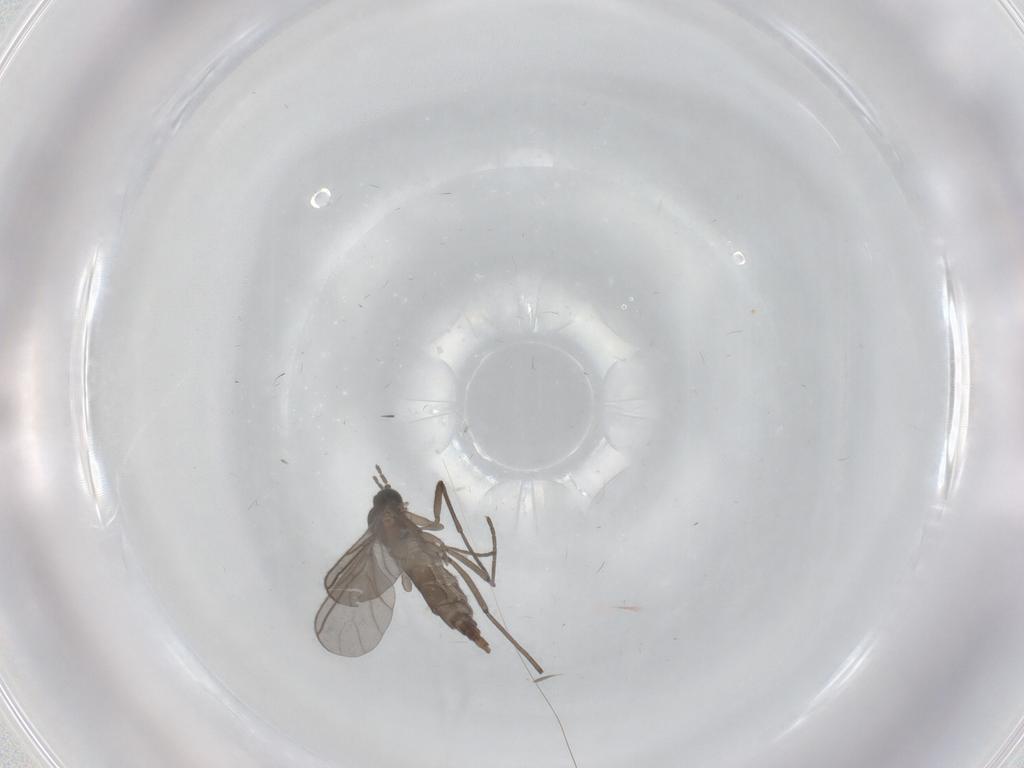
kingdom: Animalia
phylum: Arthropoda
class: Insecta
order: Diptera
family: Sciaridae
